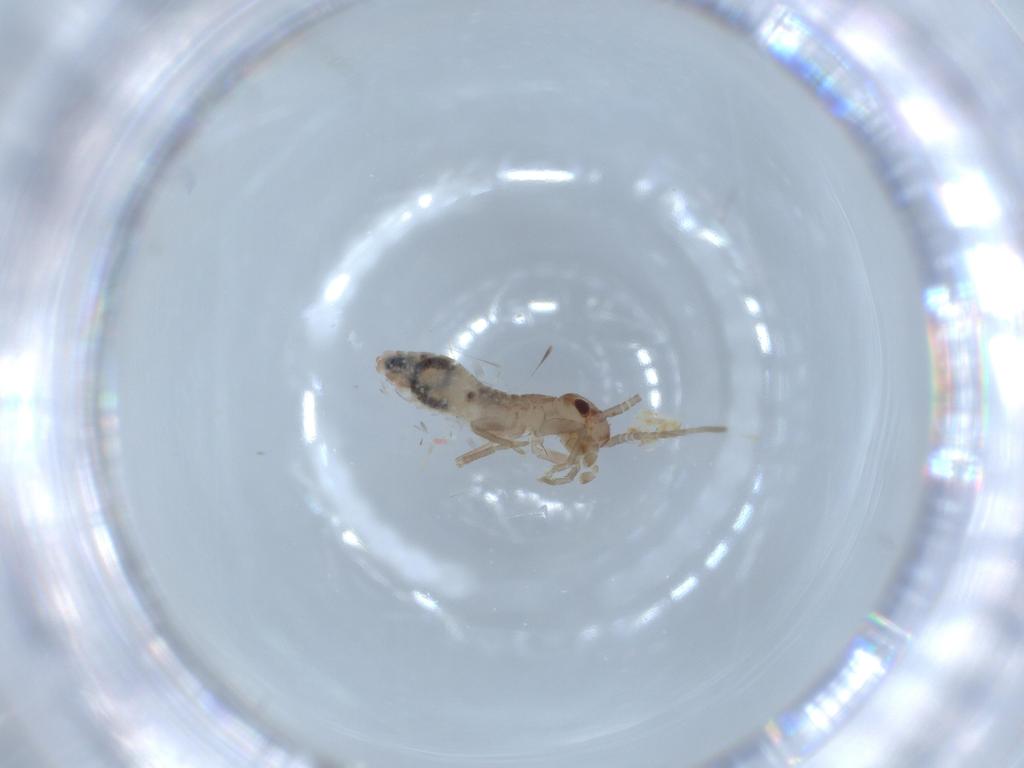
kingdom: Animalia
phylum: Arthropoda
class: Insecta
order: Orthoptera
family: Mogoplistidae
